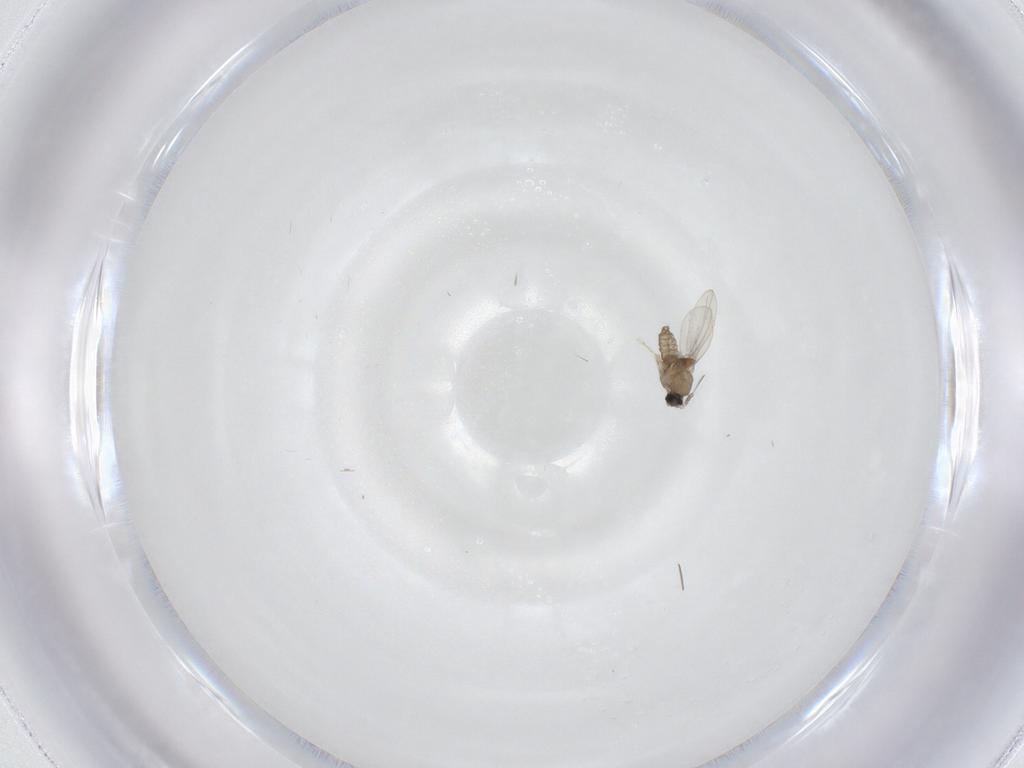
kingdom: Animalia
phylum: Arthropoda
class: Insecta
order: Diptera
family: Cecidomyiidae
